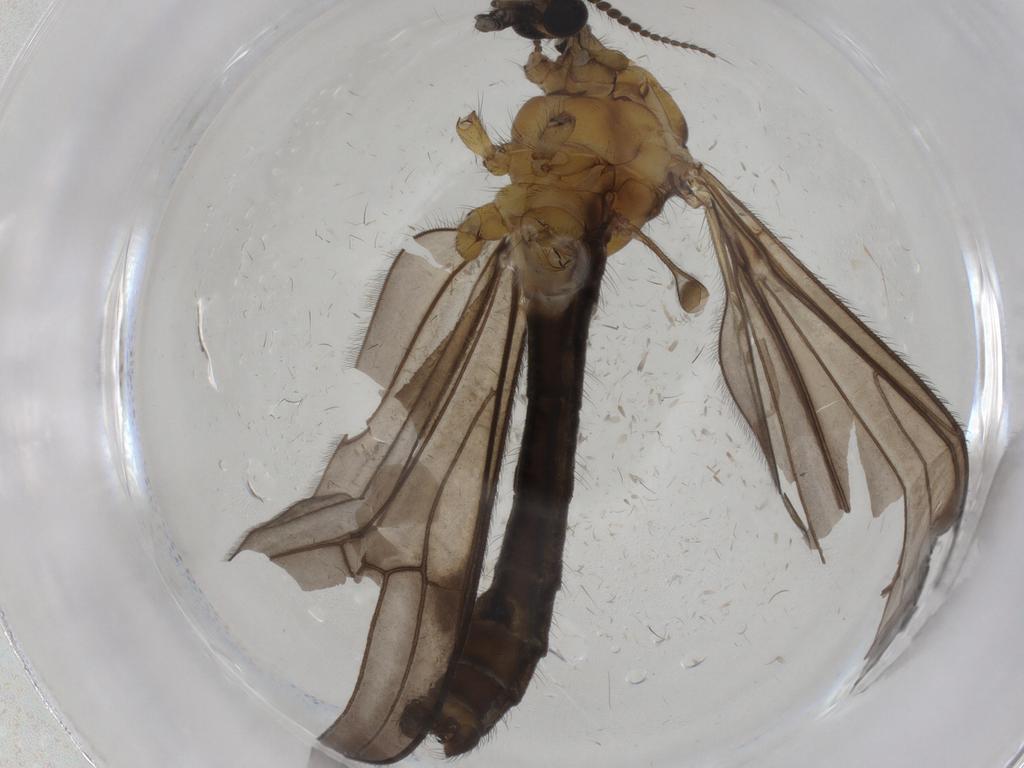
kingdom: Animalia
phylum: Arthropoda
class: Insecta
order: Diptera
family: Limoniidae
